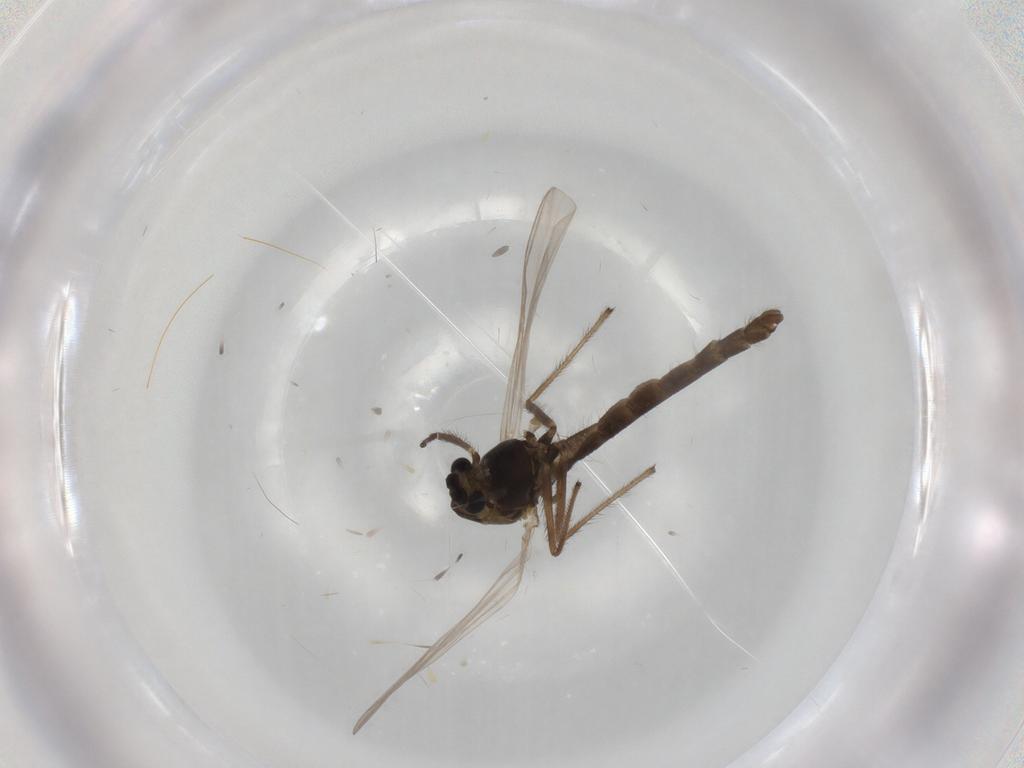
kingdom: Animalia
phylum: Arthropoda
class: Insecta
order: Diptera
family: Chironomidae
